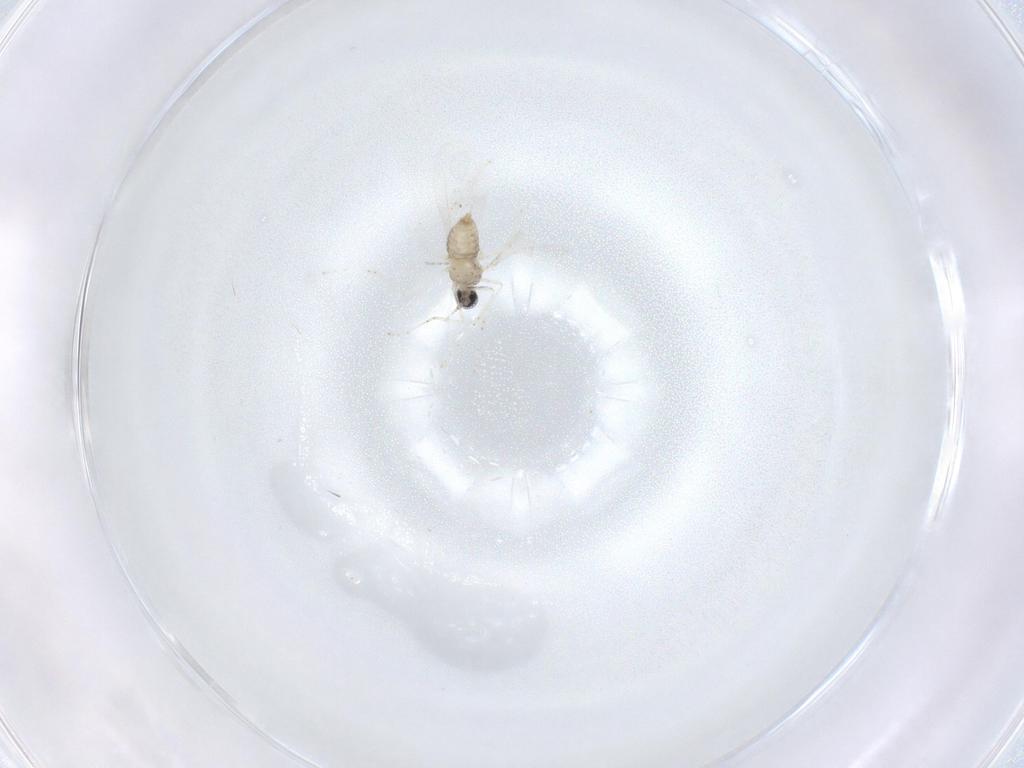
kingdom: Animalia
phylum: Arthropoda
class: Insecta
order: Diptera
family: Cecidomyiidae
